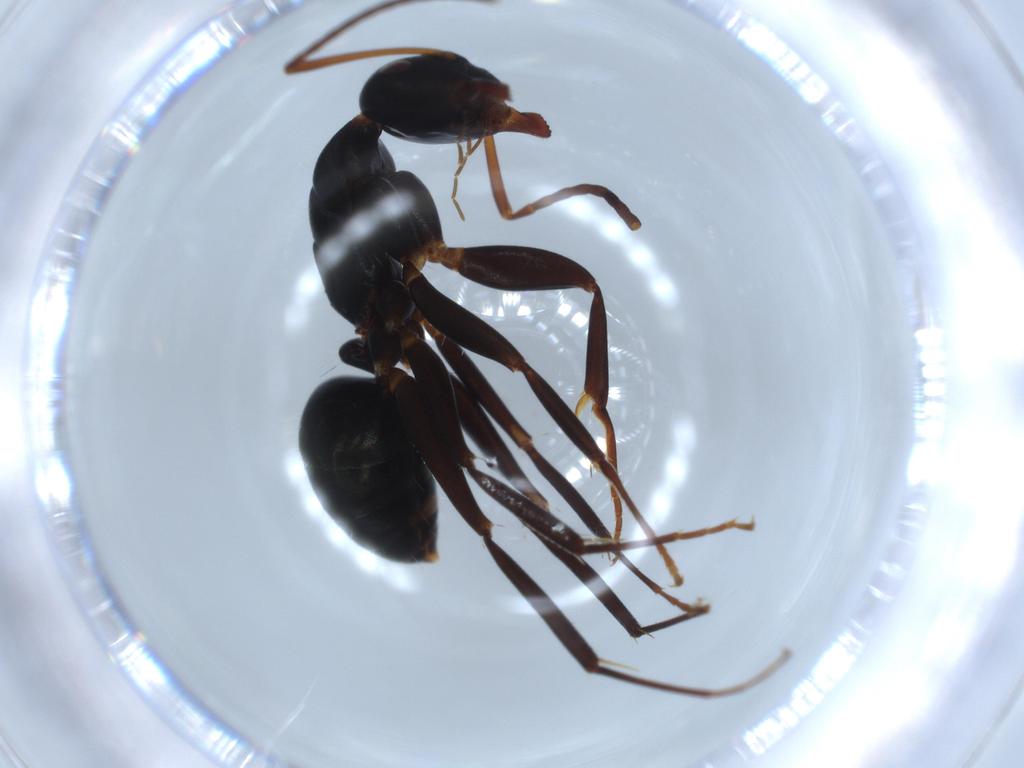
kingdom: Animalia
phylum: Arthropoda
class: Insecta
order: Hymenoptera
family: Formicidae
